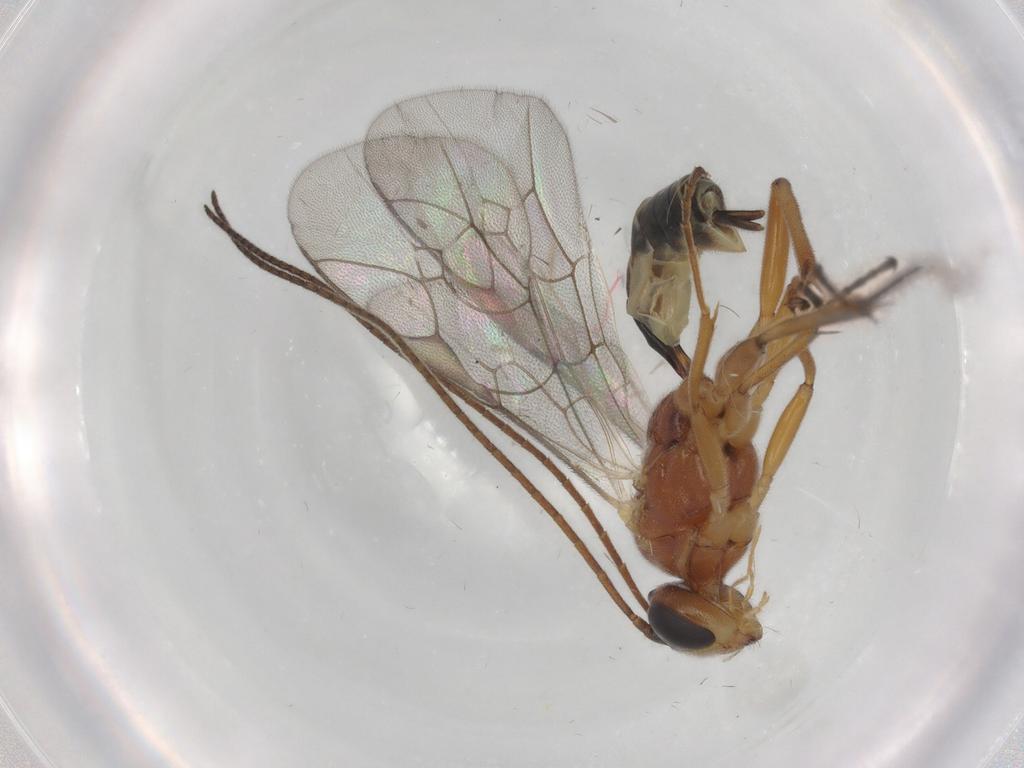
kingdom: Animalia
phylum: Arthropoda
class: Insecta
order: Hymenoptera
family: Ichneumonidae
